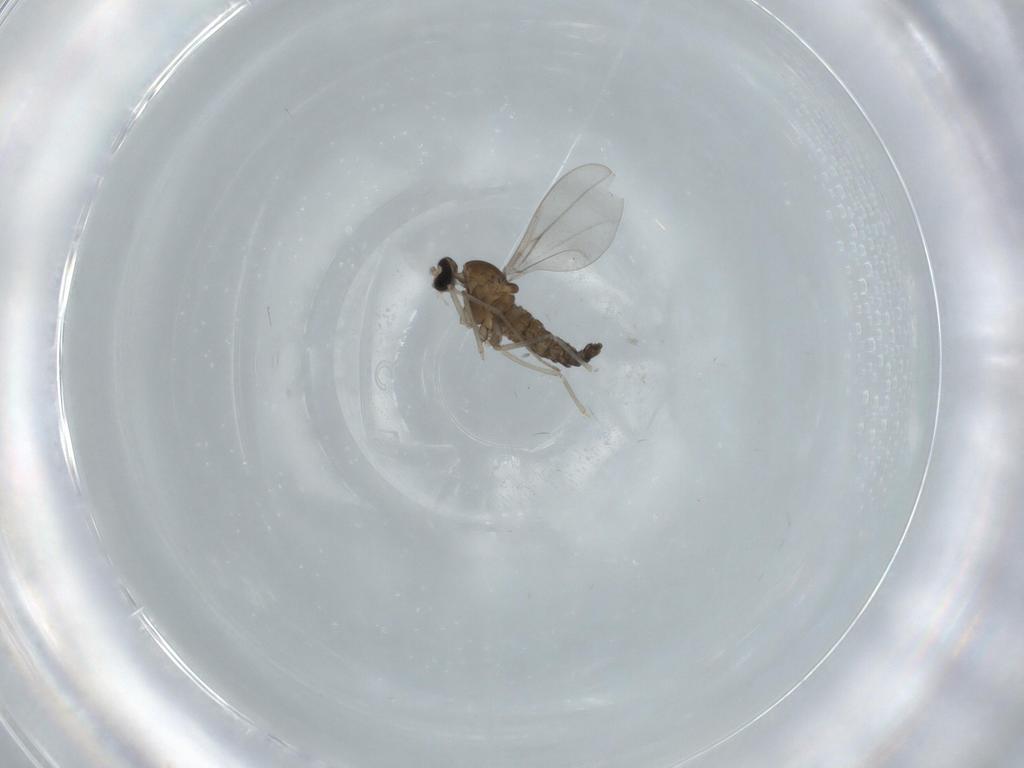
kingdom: Animalia
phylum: Arthropoda
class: Insecta
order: Diptera
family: Cecidomyiidae
